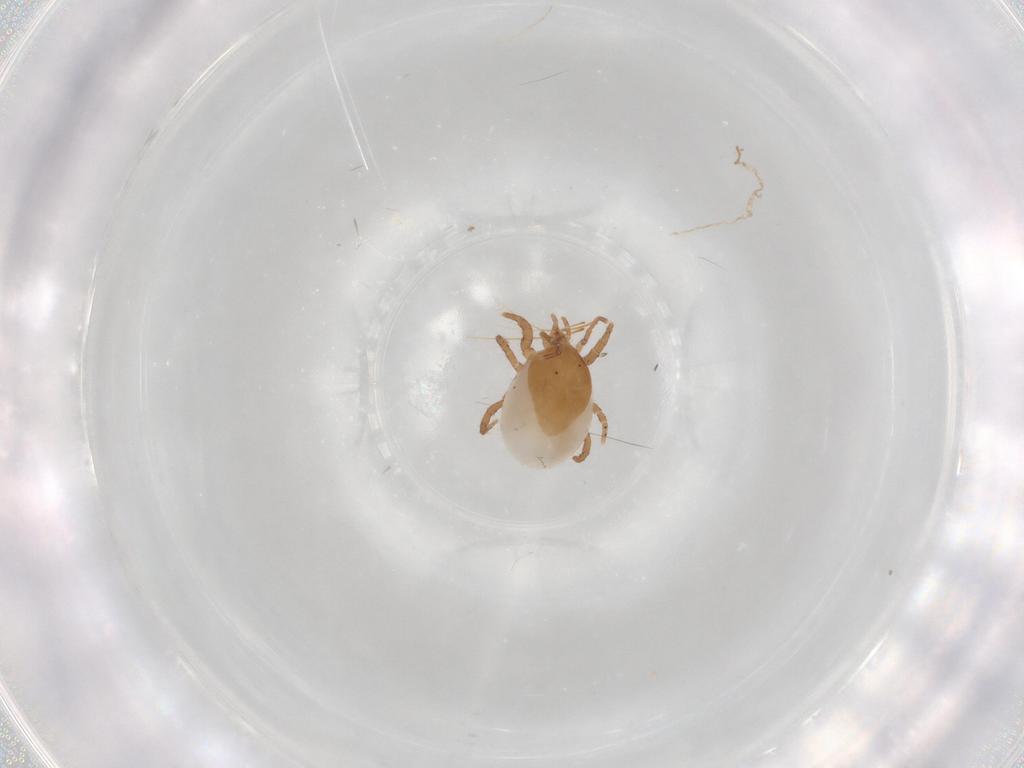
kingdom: Animalia
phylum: Arthropoda
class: Arachnida
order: Mesostigmata
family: Macrochelidae
